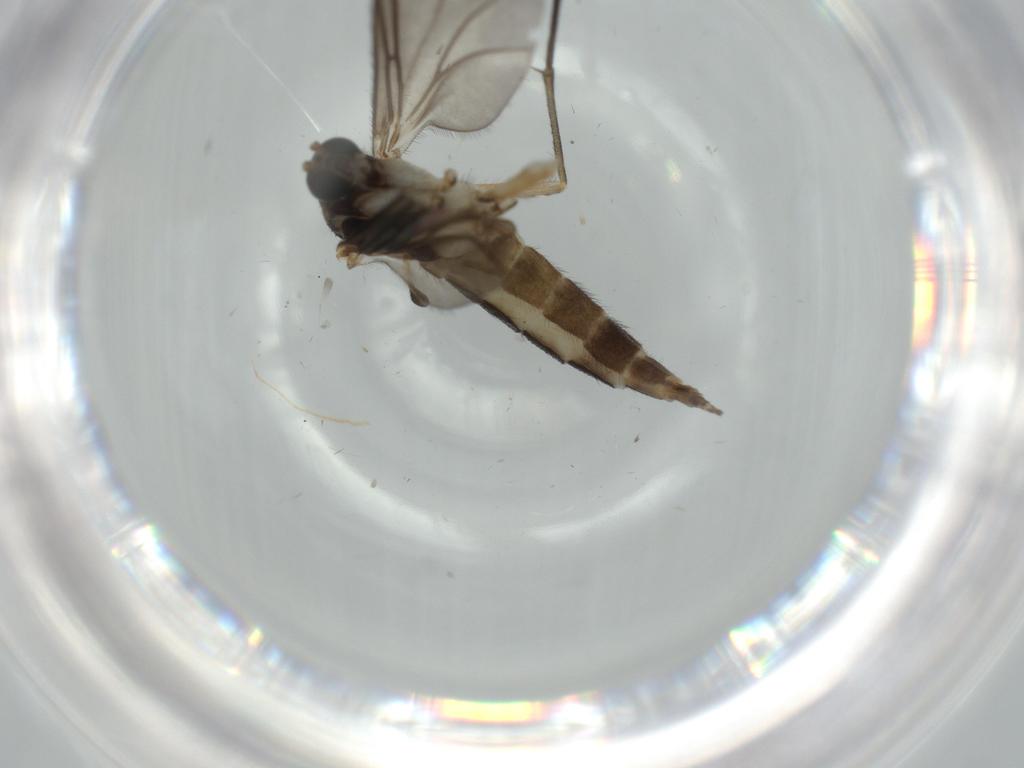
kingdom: Animalia
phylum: Arthropoda
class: Insecta
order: Diptera
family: Sciaridae
